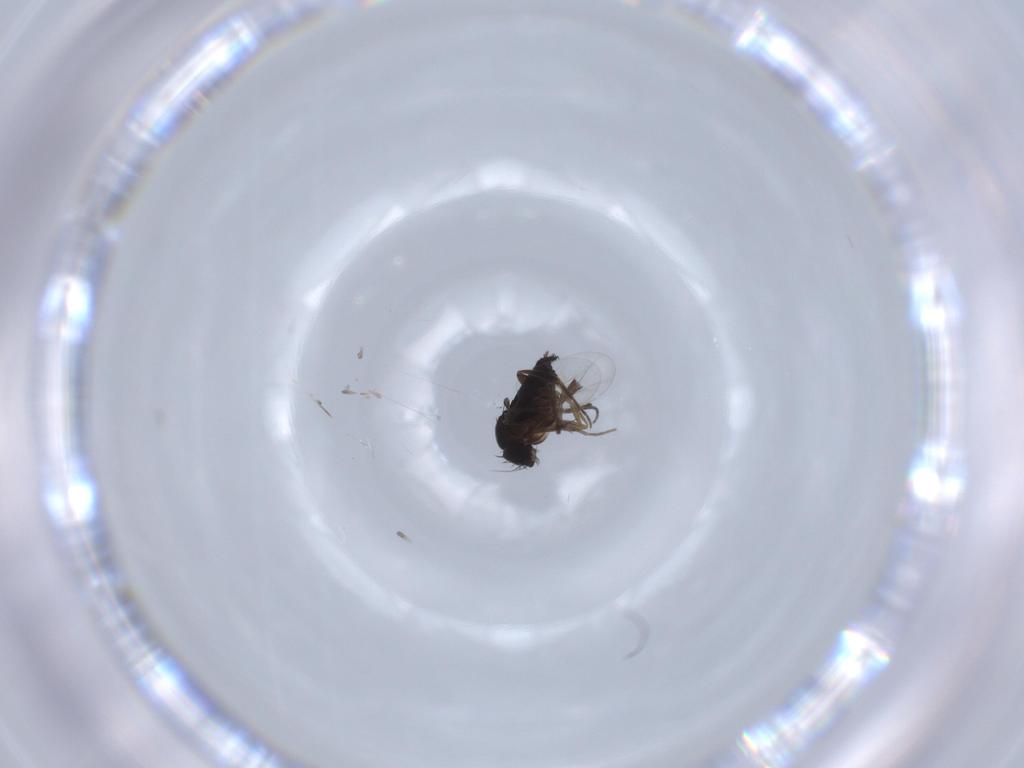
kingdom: Animalia
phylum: Arthropoda
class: Insecta
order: Diptera
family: Phoridae
